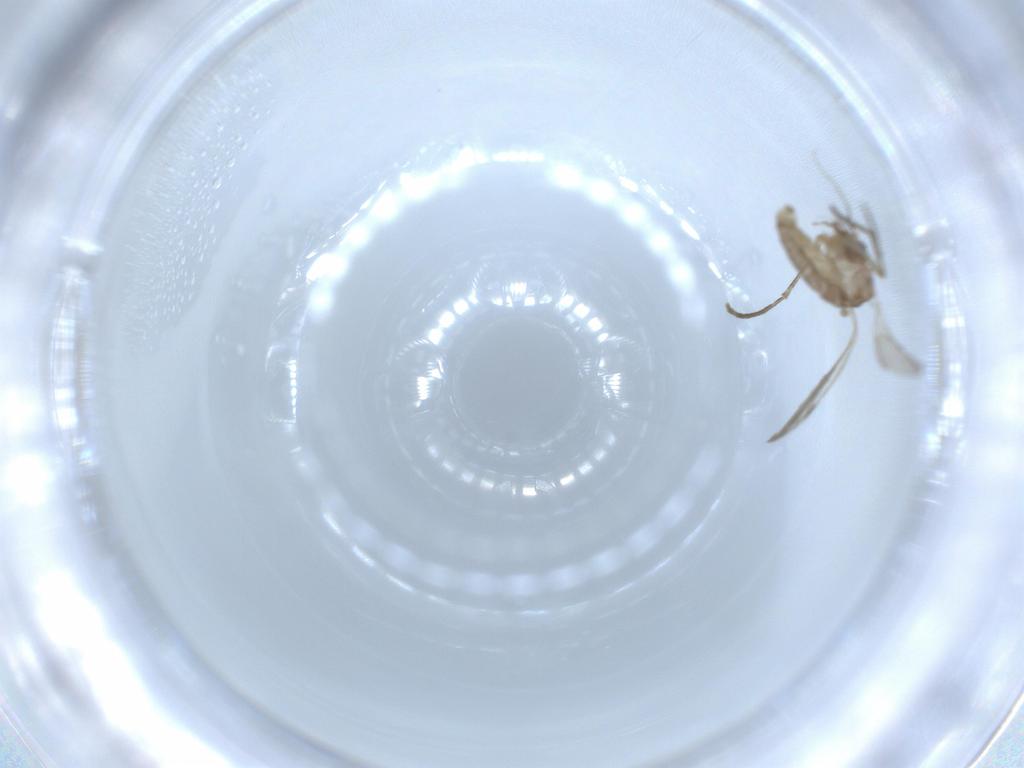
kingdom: Animalia
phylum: Arthropoda
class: Insecta
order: Diptera
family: Psychodidae
